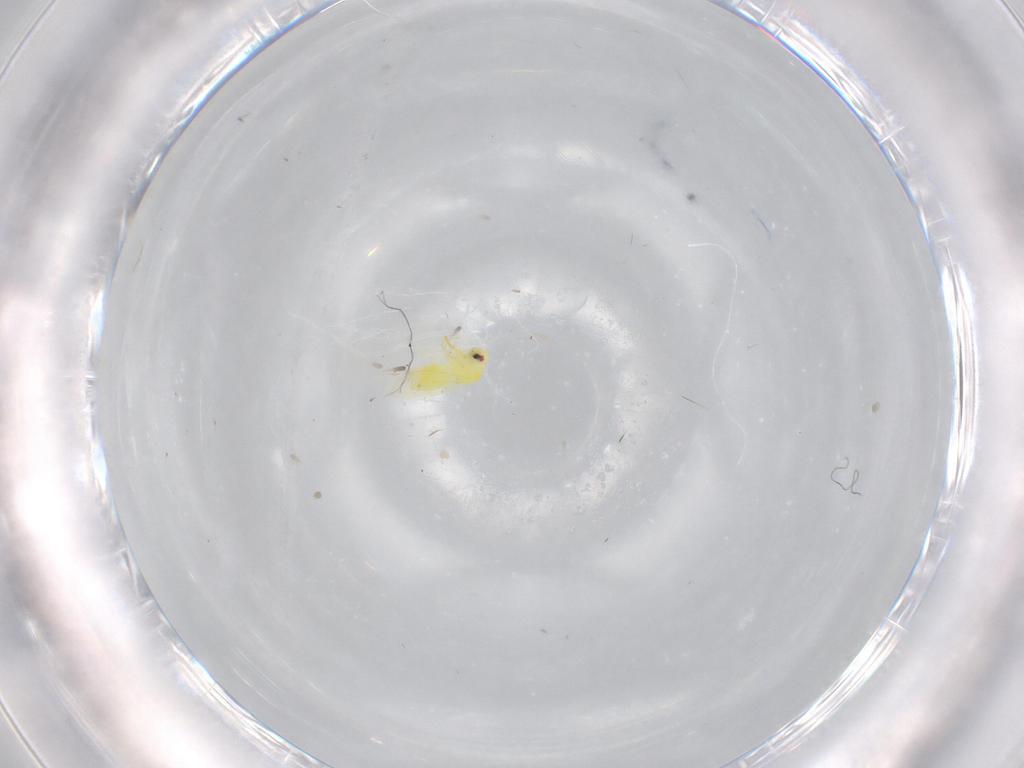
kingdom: Animalia
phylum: Arthropoda
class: Insecta
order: Hemiptera
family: Aleyrodidae
